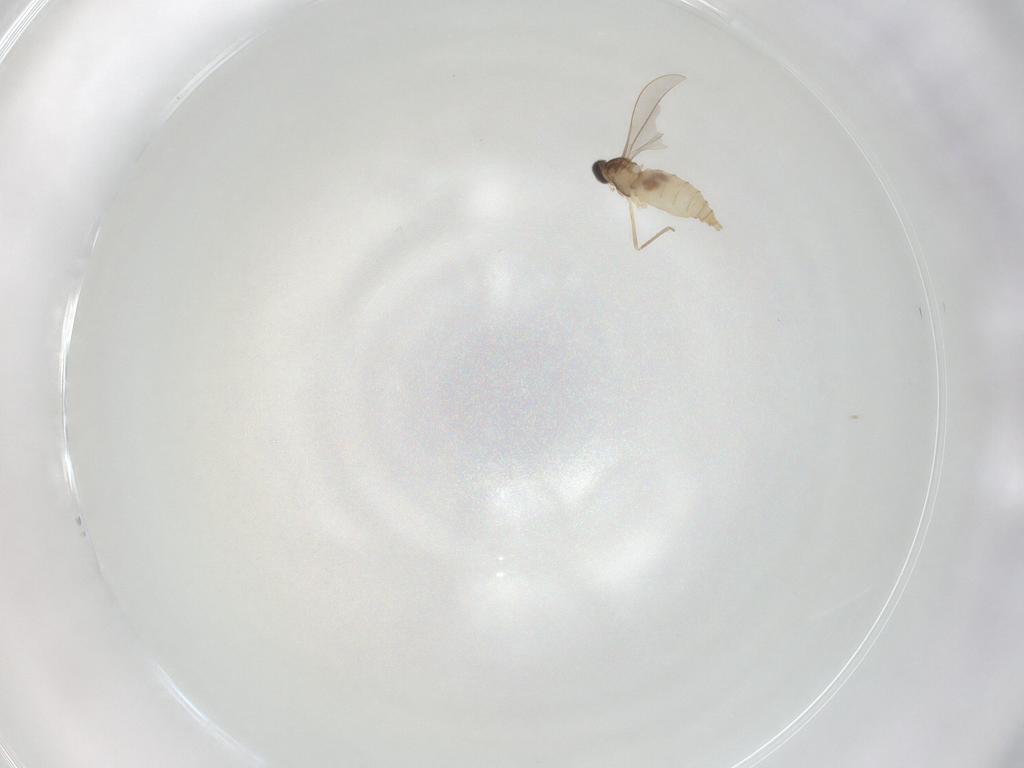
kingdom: Animalia
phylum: Arthropoda
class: Insecta
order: Diptera
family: Cecidomyiidae
